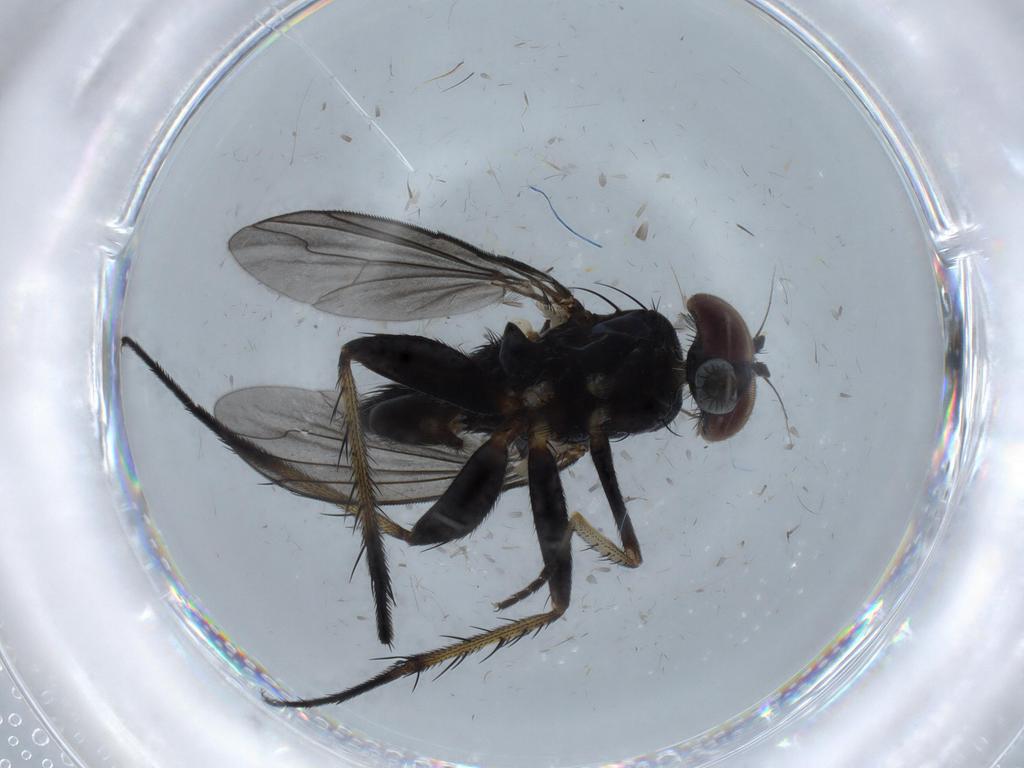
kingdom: Animalia
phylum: Arthropoda
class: Insecta
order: Diptera
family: Dolichopodidae
